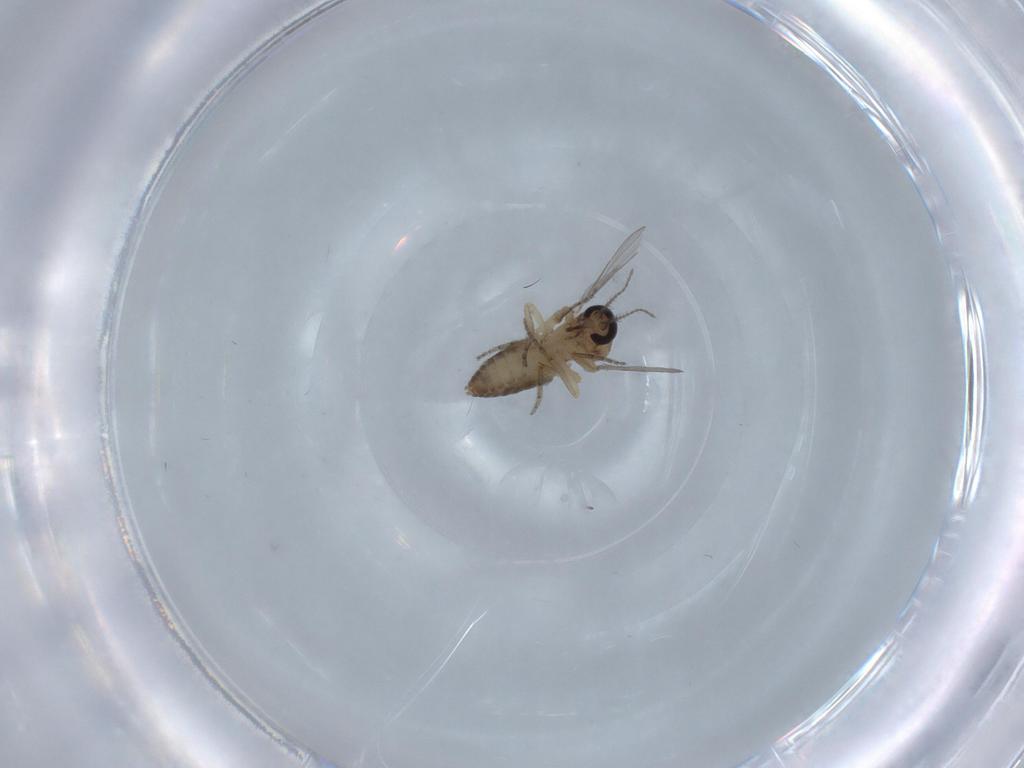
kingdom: Animalia
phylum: Arthropoda
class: Insecta
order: Diptera
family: Ceratopogonidae
